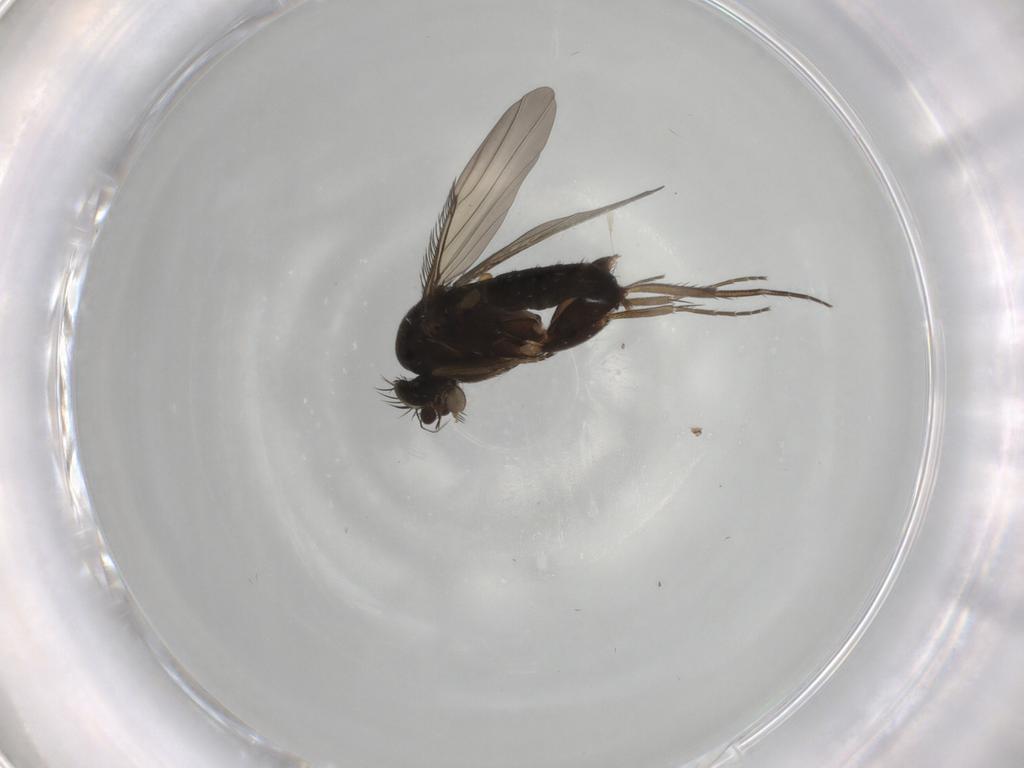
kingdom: Animalia
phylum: Arthropoda
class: Insecta
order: Diptera
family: Phoridae
